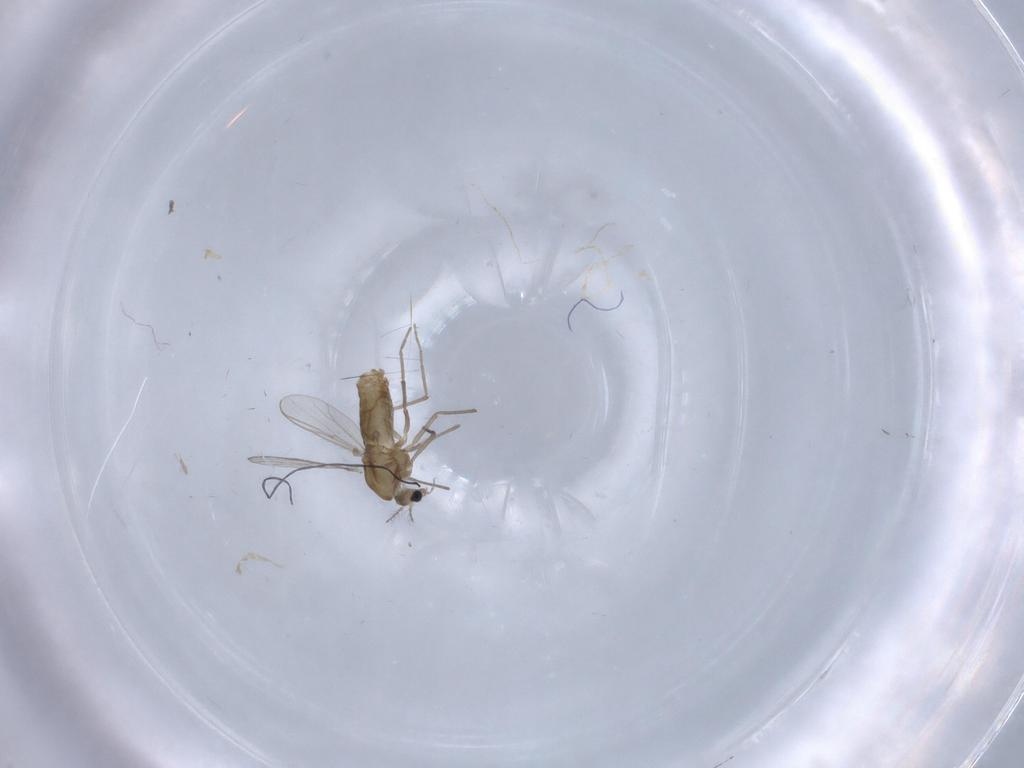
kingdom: Animalia
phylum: Arthropoda
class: Insecta
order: Diptera
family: Chironomidae
